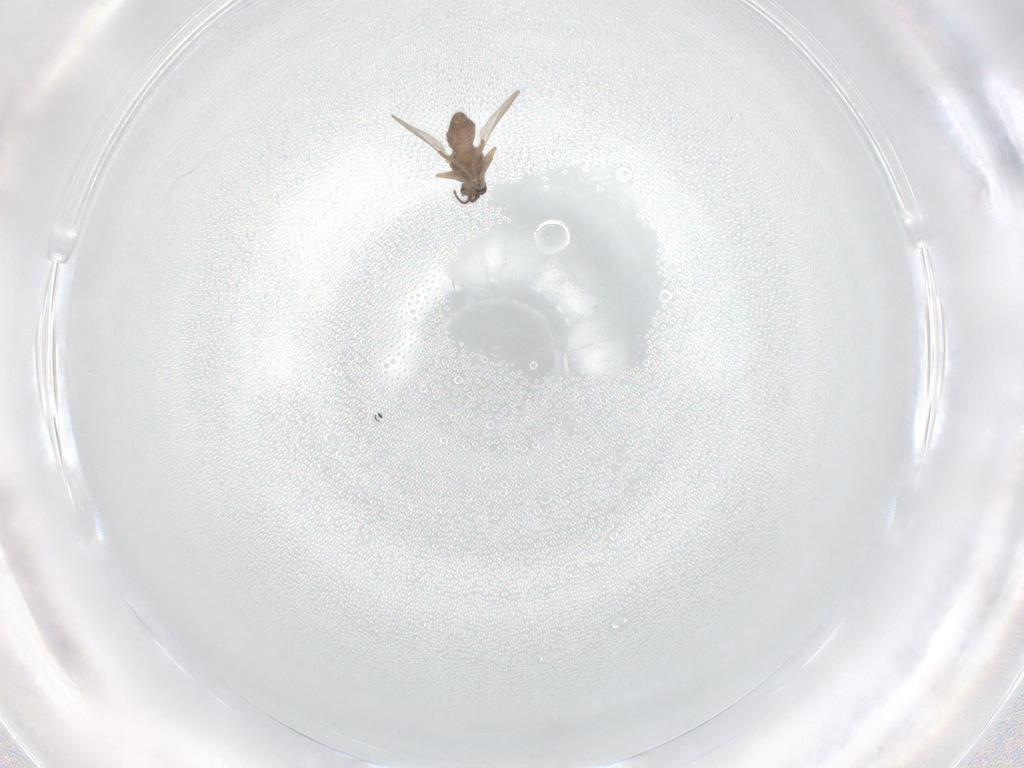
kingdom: Animalia
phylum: Arthropoda
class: Insecta
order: Diptera
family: Ceratopogonidae
